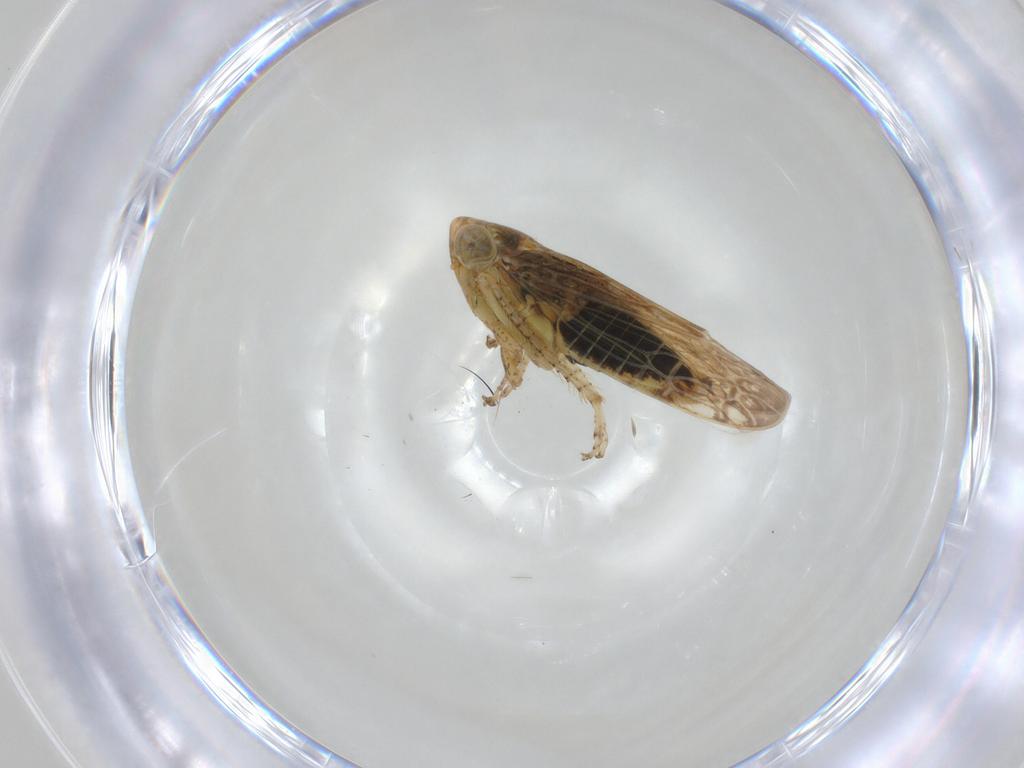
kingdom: Animalia
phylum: Arthropoda
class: Insecta
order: Hemiptera
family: Cicadellidae
